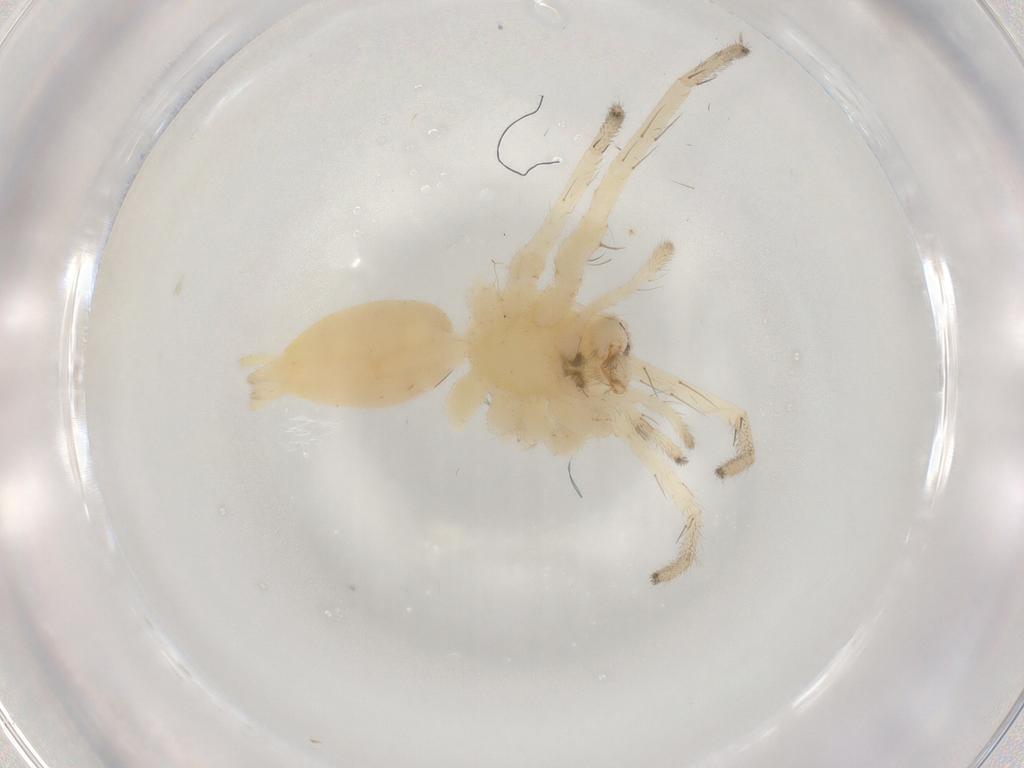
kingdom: Animalia
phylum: Arthropoda
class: Arachnida
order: Araneae
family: Anyphaenidae
